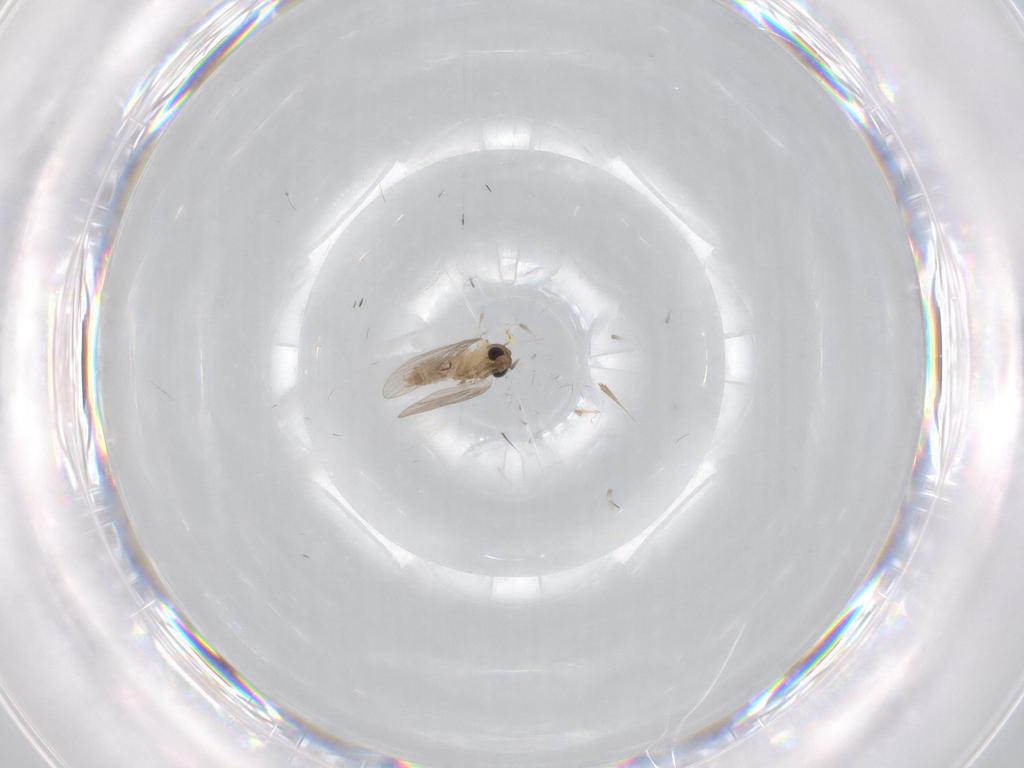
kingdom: Animalia
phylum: Arthropoda
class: Insecta
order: Diptera
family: Psychodidae
